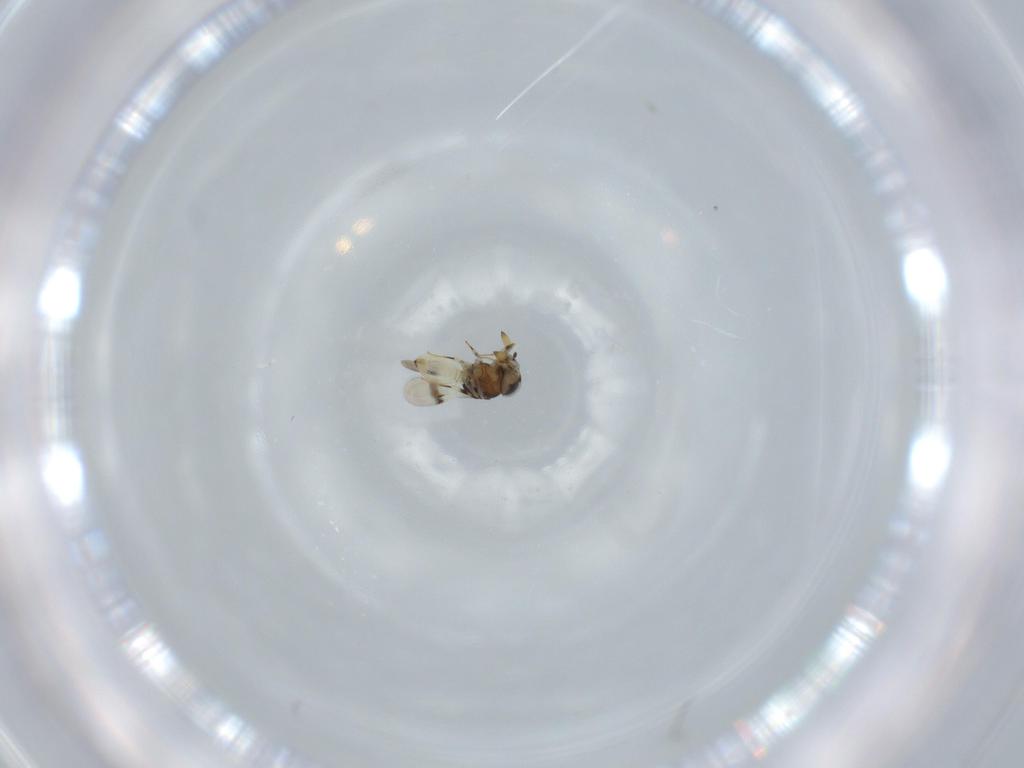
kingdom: Animalia
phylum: Arthropoda
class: Insecta
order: Hymenoptera
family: Scelionidae
